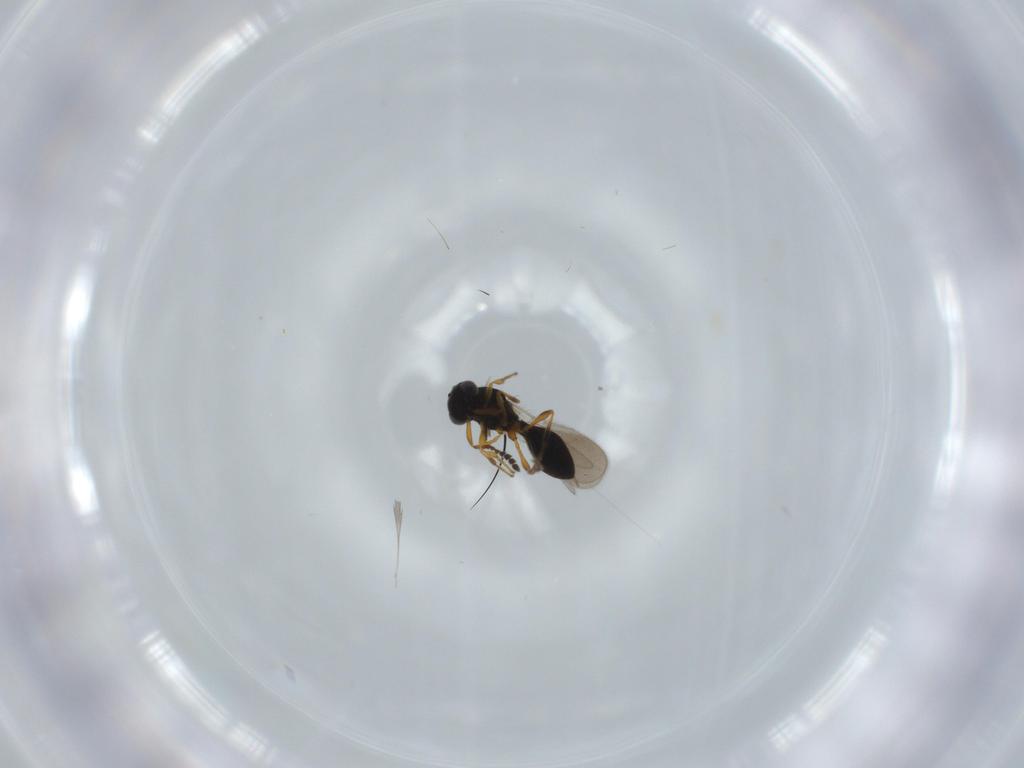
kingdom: Animalia
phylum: Arthropoda
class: Insecta
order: Hymenoptera
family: Platygastridae
